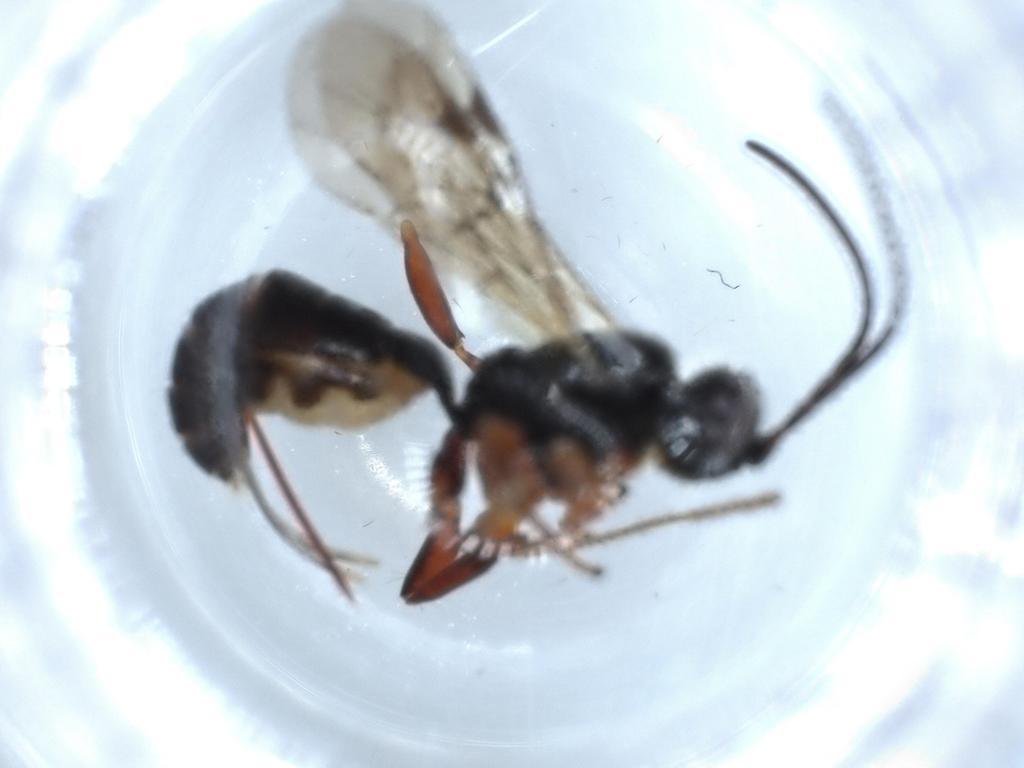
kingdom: Animalia
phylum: Arthropoda
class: Insecta
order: Hymenoptera
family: Ichneumonidae
